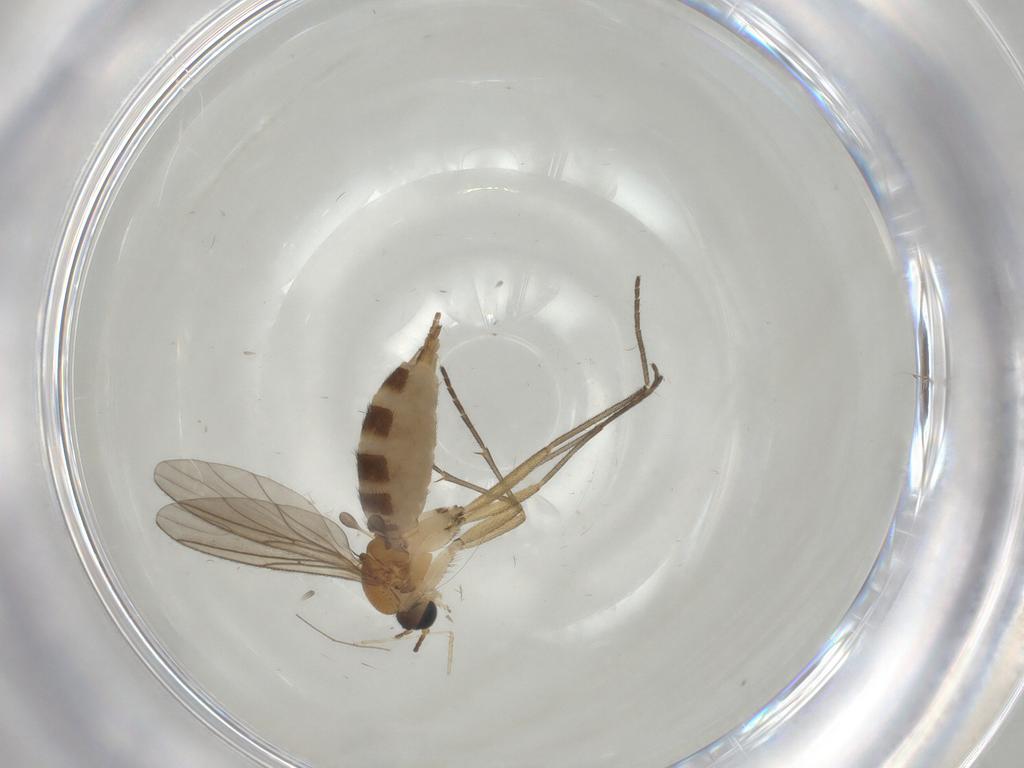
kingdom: Animalia
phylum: Arthropoda
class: Insecta
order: Diptera
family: Chironomidae
